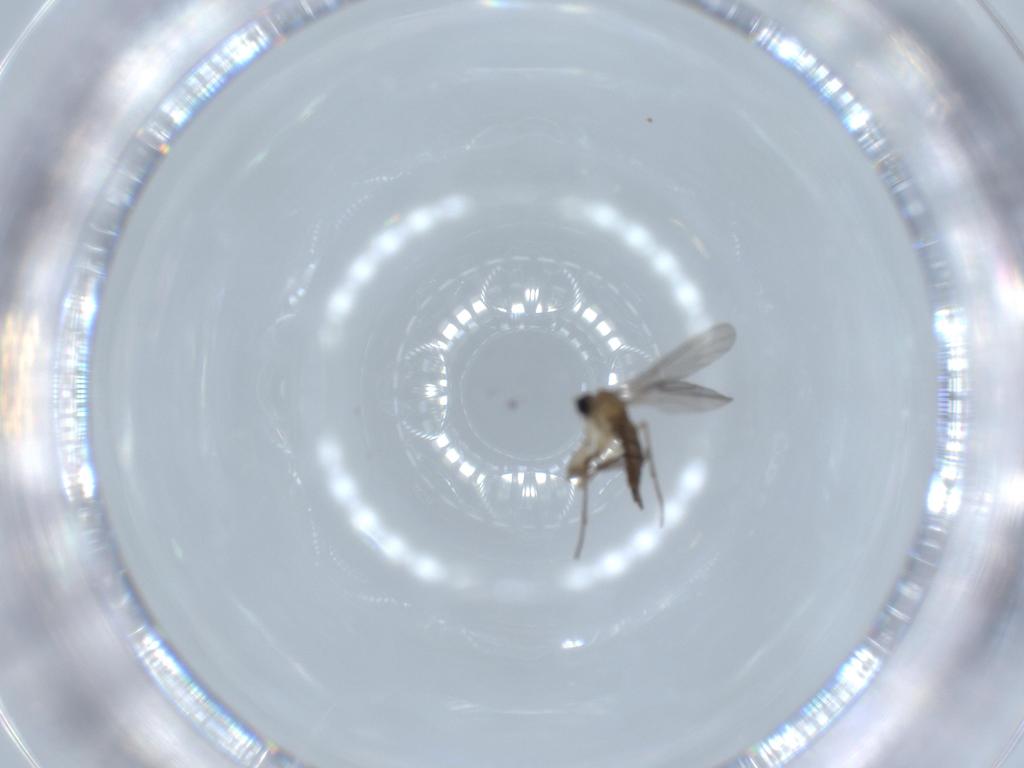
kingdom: Animalia
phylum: Arthropoda
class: Insecta
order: Diptera
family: Sciaridae
